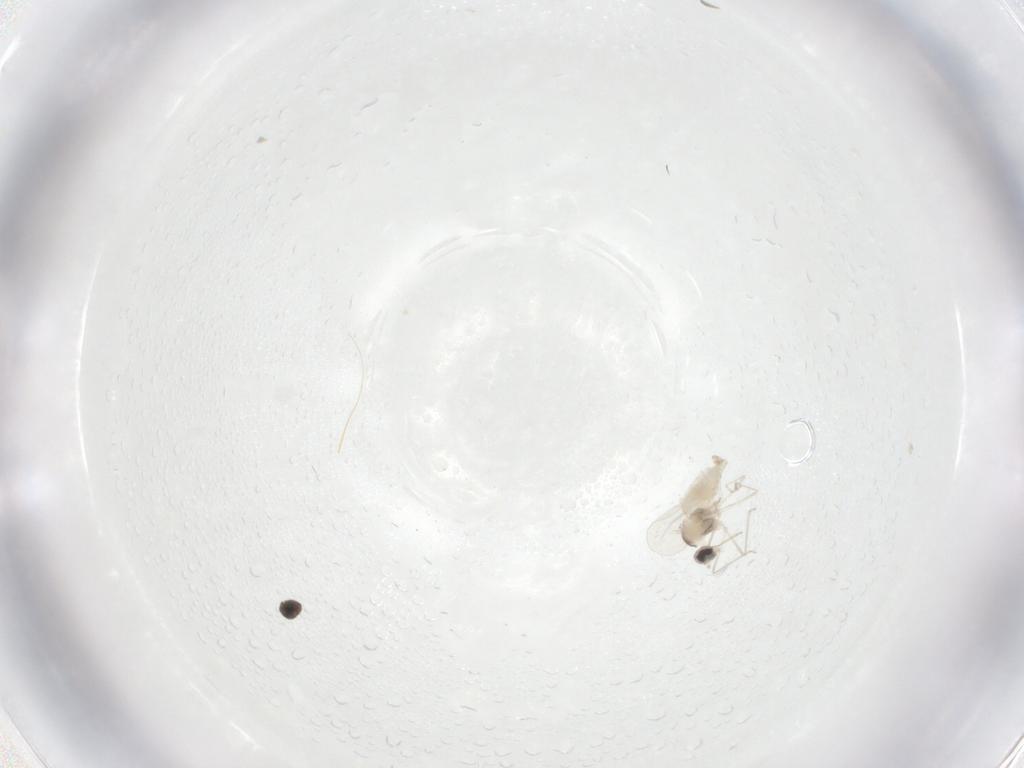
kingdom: Animalia
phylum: Arthropoda
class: Insecta
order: Diptera
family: Cecidomyiidae
